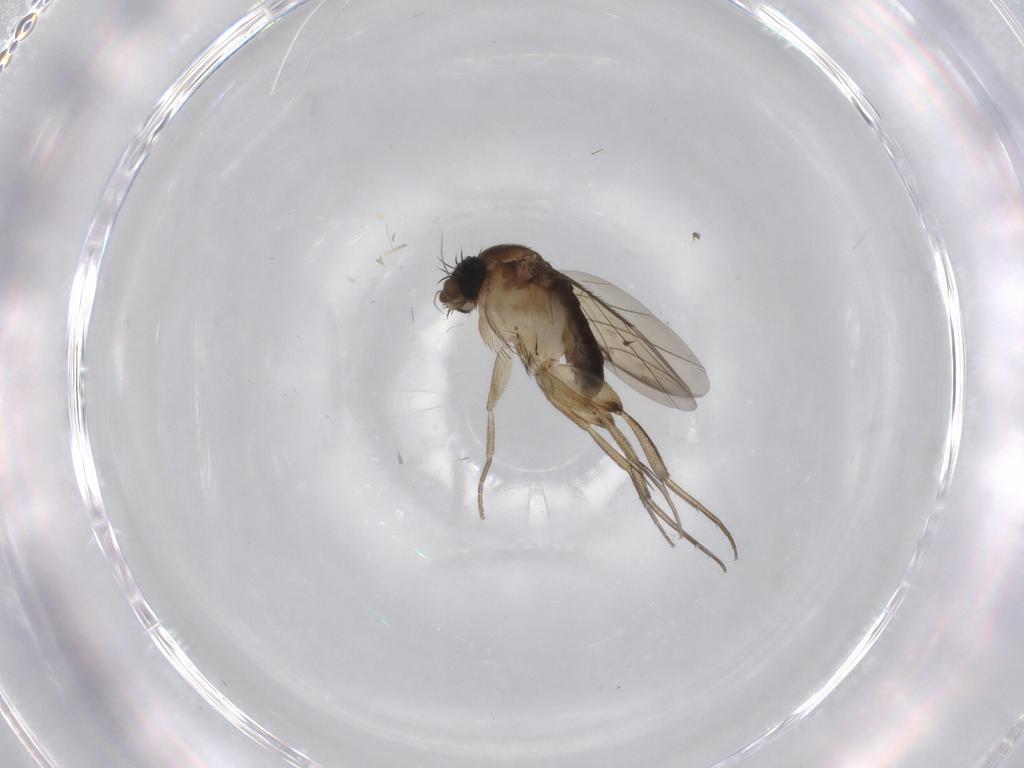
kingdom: Animalia
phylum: Arthropoda
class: Insecta
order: Diptera
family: Phoridae
